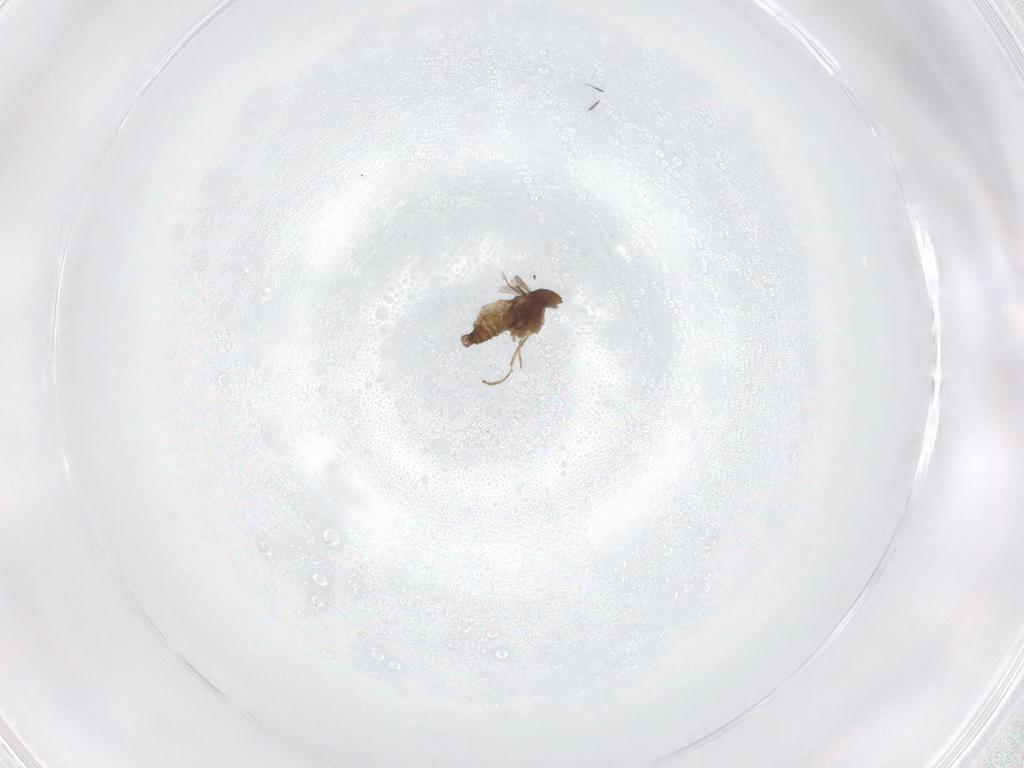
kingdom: Animalia
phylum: Arthropoda
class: Insecta
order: Diptera
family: Cecidomyiidae
